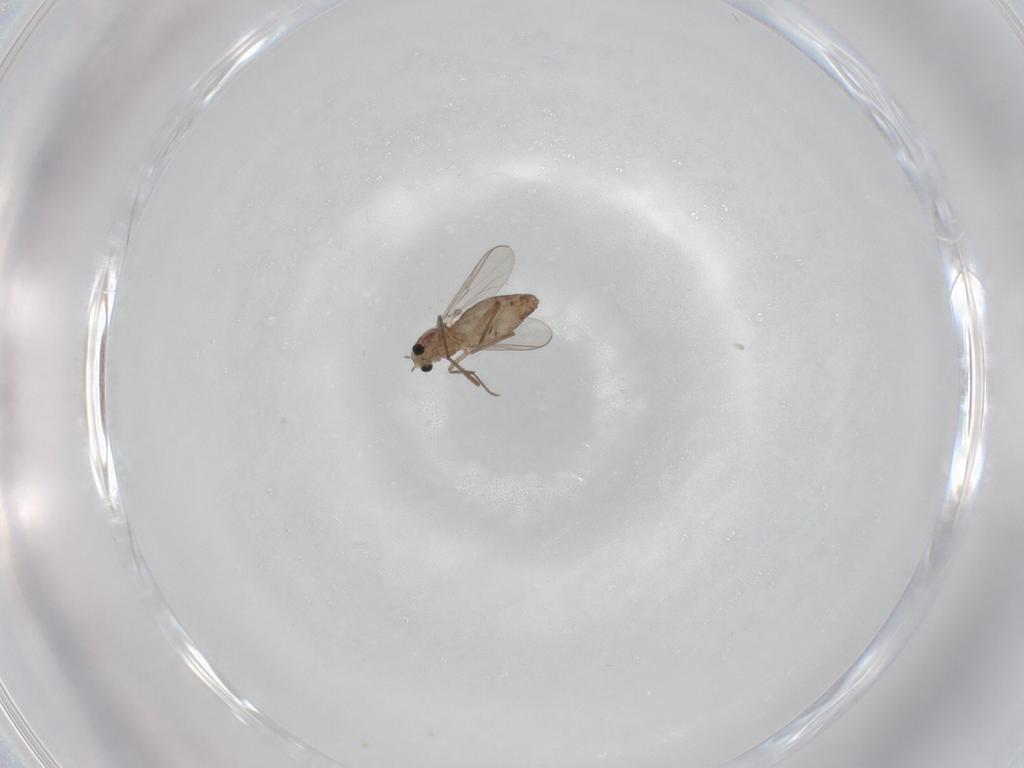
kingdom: Animalia
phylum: Arthropoda
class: Insecta
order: Diptera
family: Chironomidae
